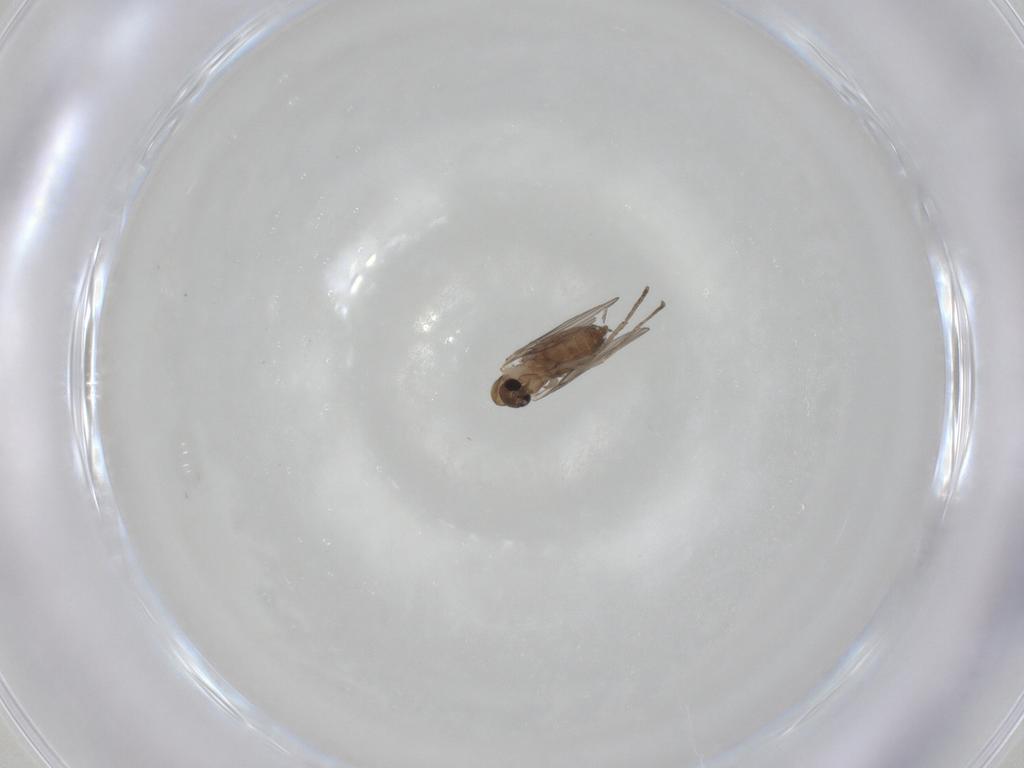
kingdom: Animalia
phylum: Arthropoda
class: Insecta
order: Diptera
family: Psychodidae
